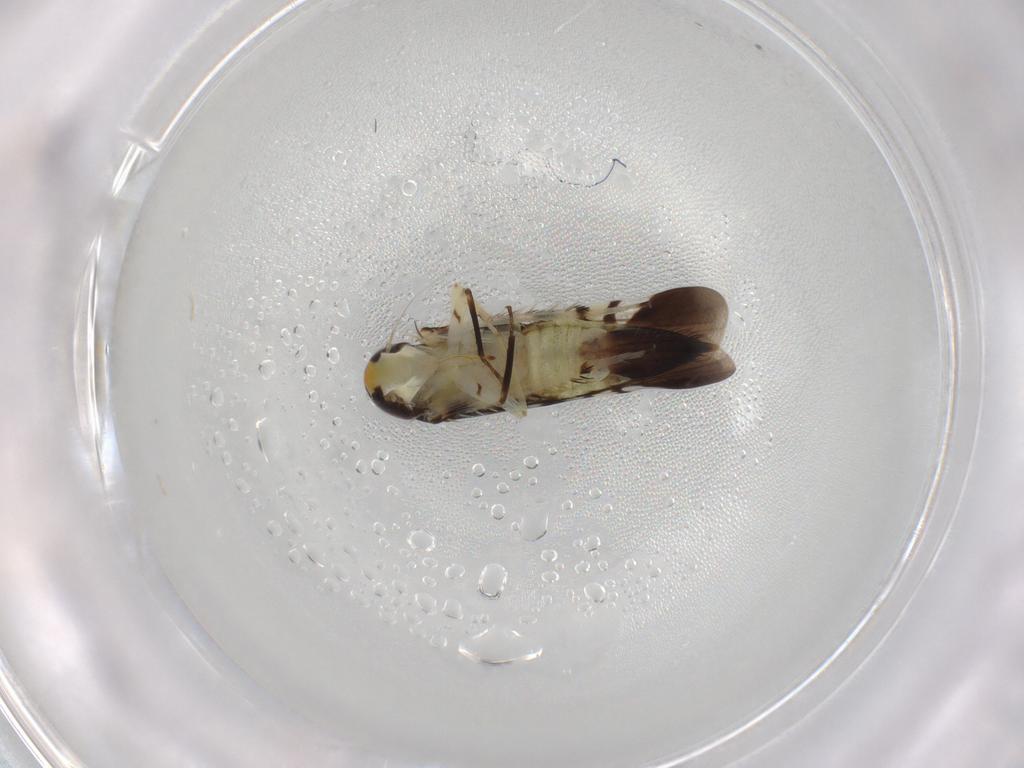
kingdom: Animalia
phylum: Arthropoda
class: Insecta
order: Hemiptera
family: Cicadellidae
